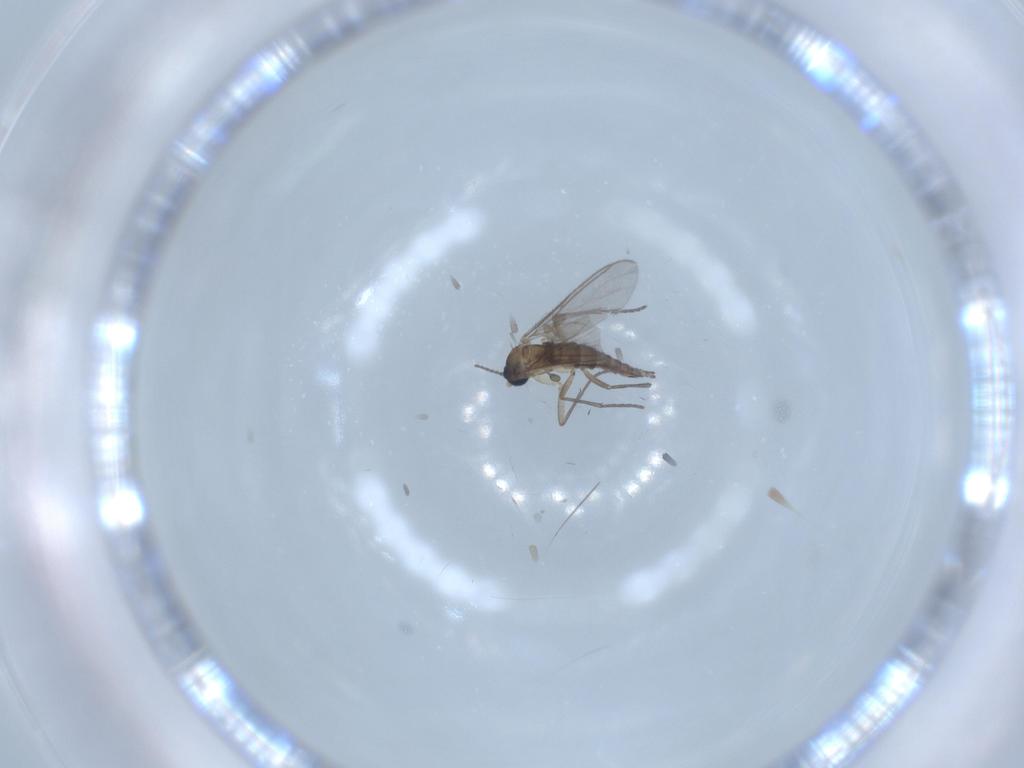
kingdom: Animalia
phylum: Arthropoda
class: Insecta
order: Diptera
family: Sciaridae
